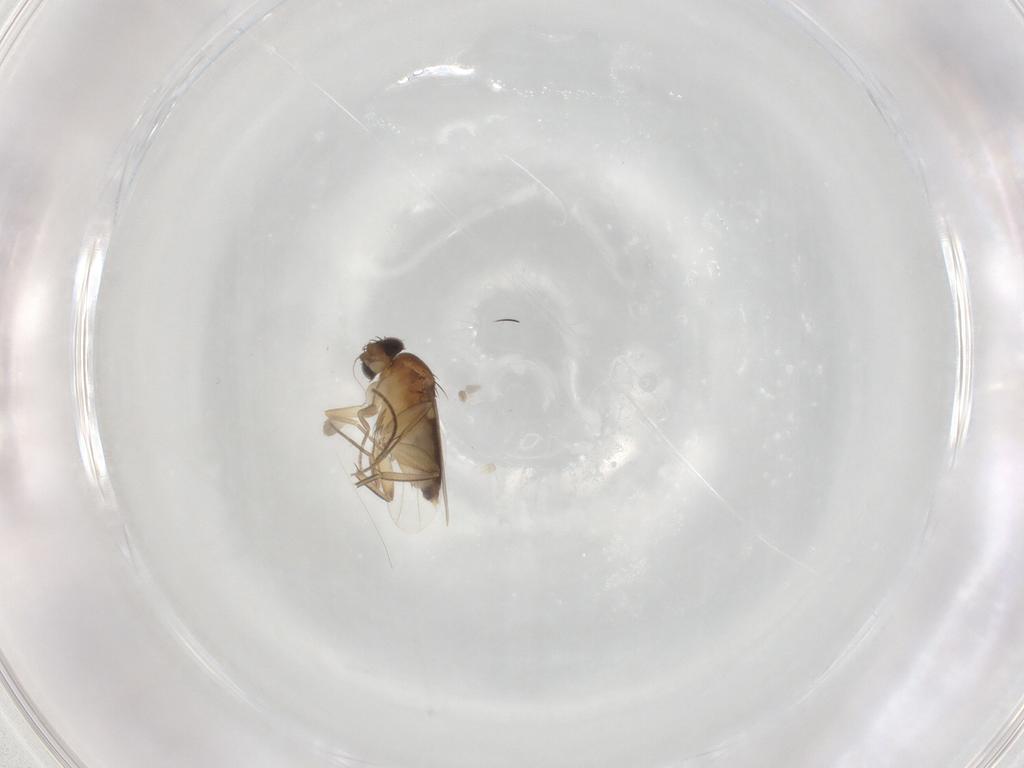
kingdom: Animalia
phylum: Arthropoda
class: Insecta
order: Diptera
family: Phoridae
